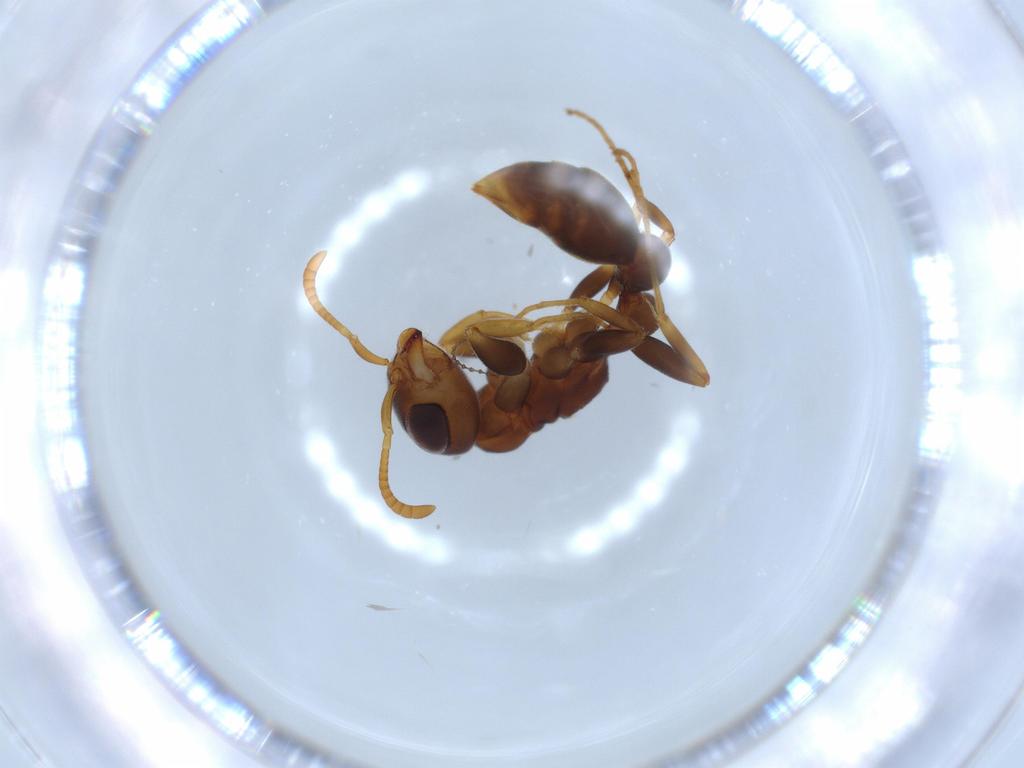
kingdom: Animalia
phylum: Arthropoda
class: Insecta
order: Hymenoptera
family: Formicidae
